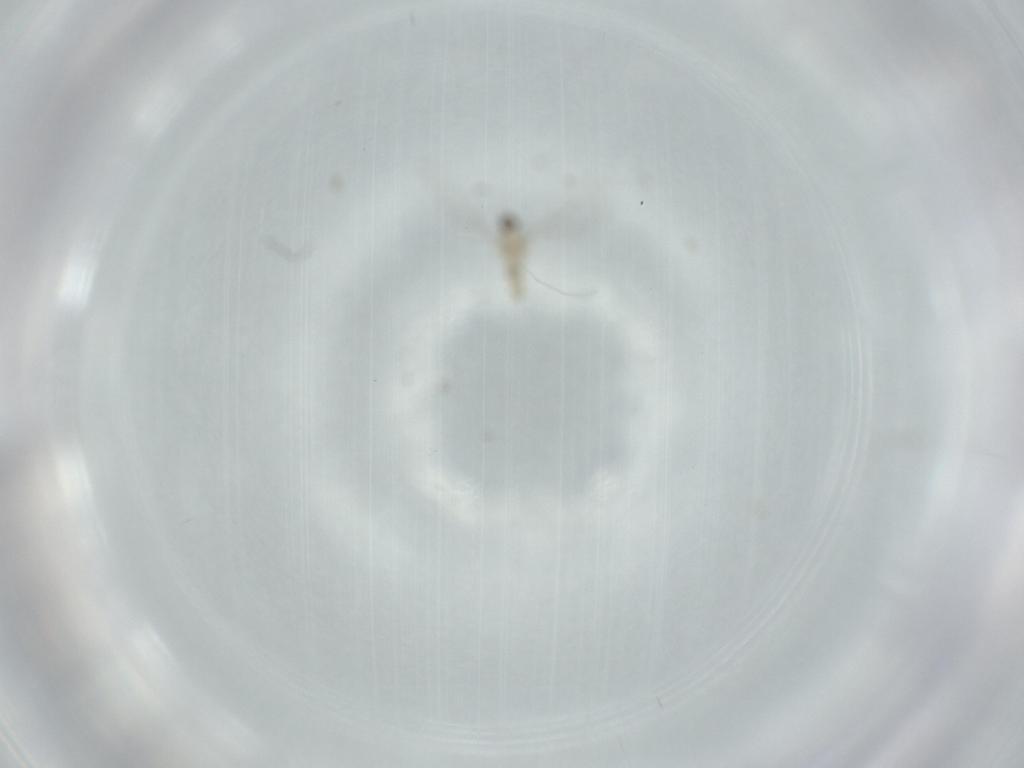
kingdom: Animalia
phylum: Arthropoda
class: Insecta
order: Diptera
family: Cecidomyiidae
